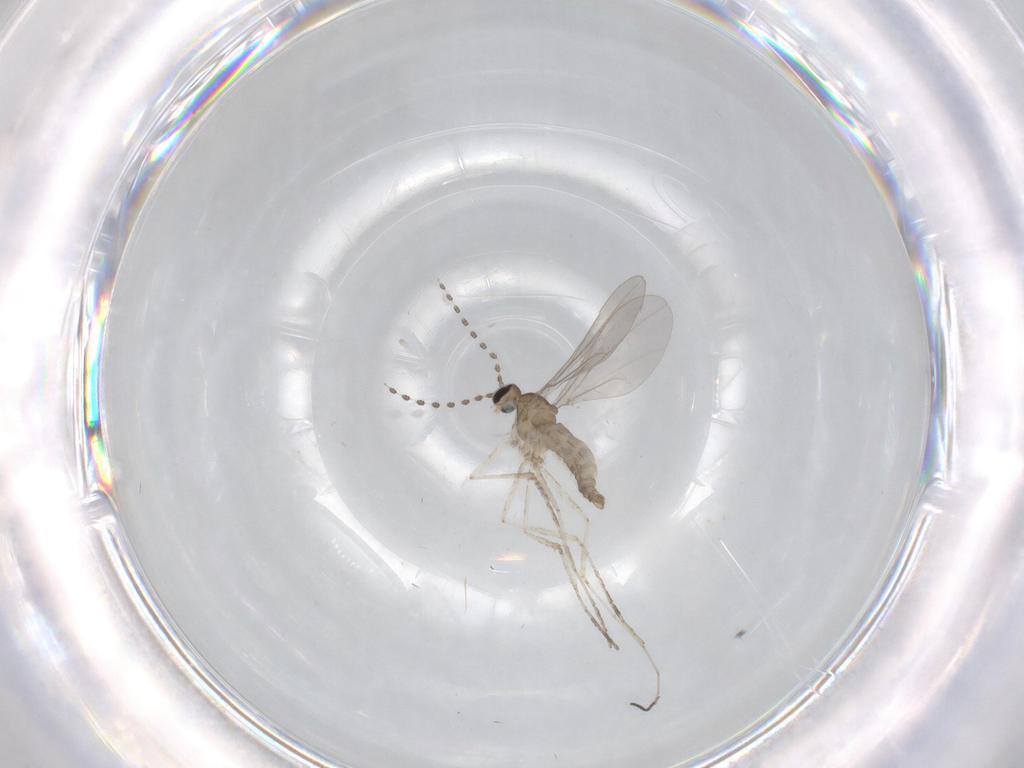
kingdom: Animalia
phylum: Arthropoda
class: Insecta
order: Diptera
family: Cecidomyiidae
